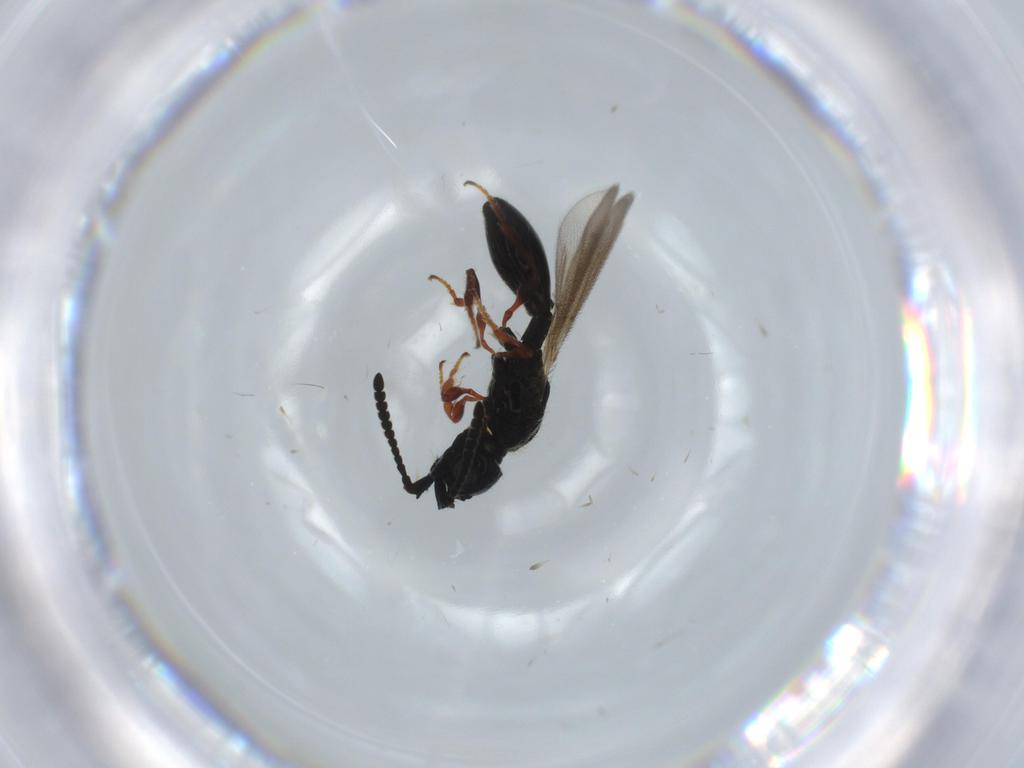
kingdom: Animalia
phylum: Arthropoda
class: Insecta
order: Hymenoptera
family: Diapriidae
